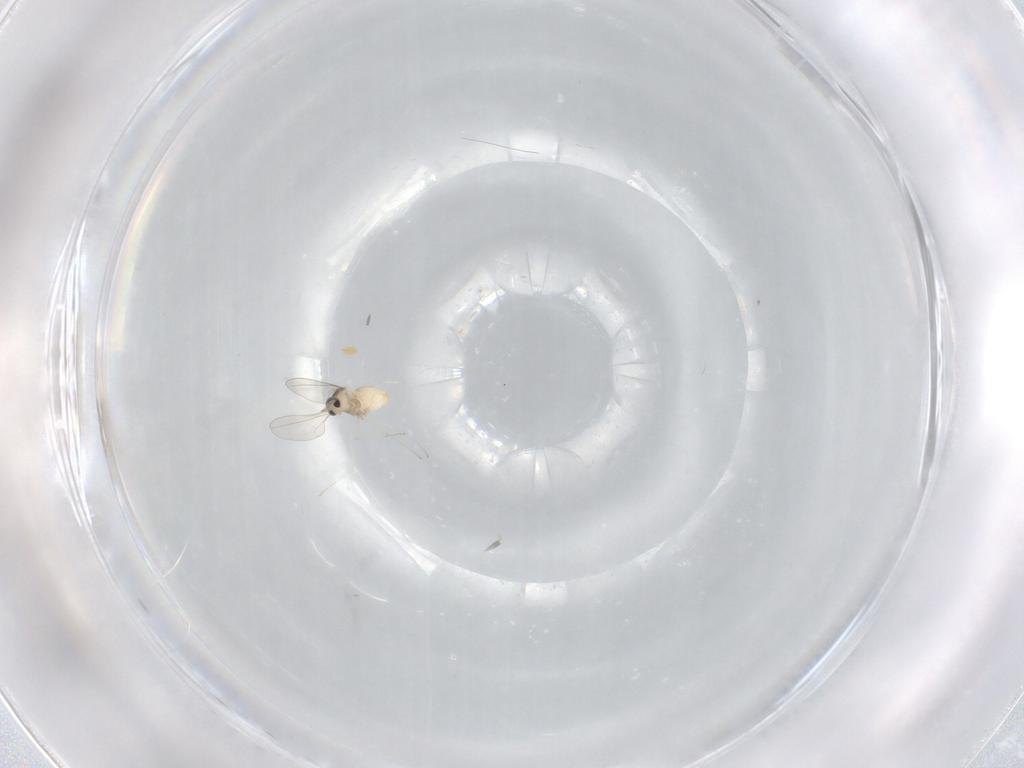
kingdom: Animalia
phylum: Arthropoda
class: Insecta
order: Diptera
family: Cecidomyiidae
